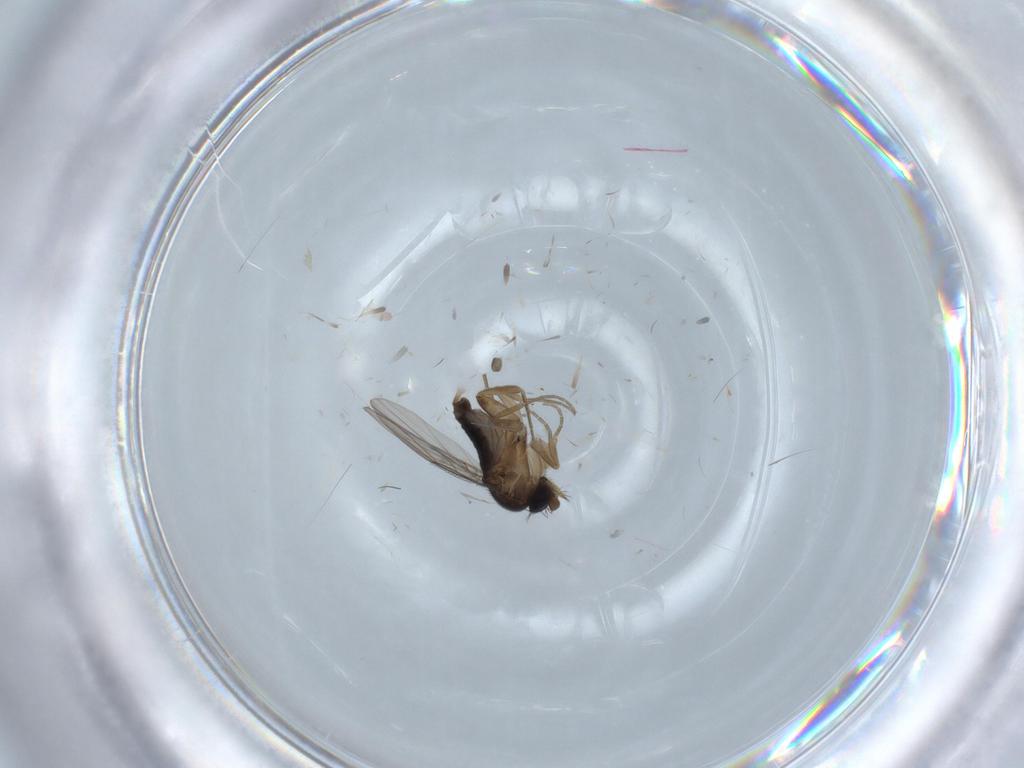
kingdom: Animalia
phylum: Arthropoda
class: Insecta
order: Diptera
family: Phoridae
